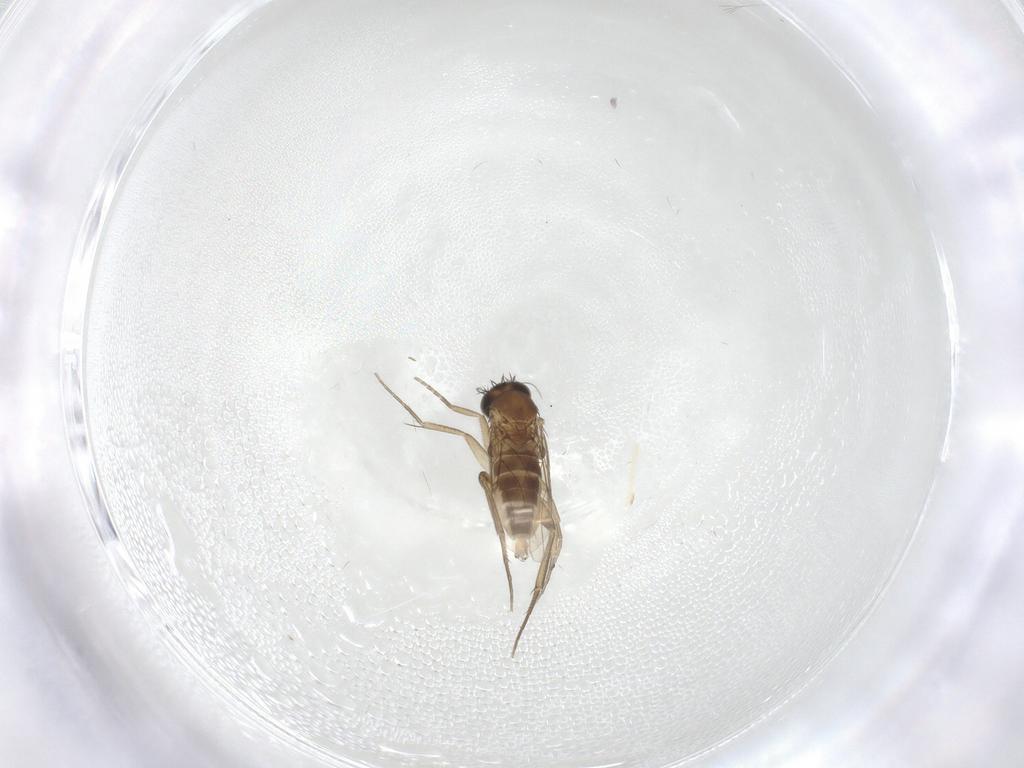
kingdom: Animalia
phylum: Arthropoda
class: Insecta
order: Diptera
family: Phoridae
